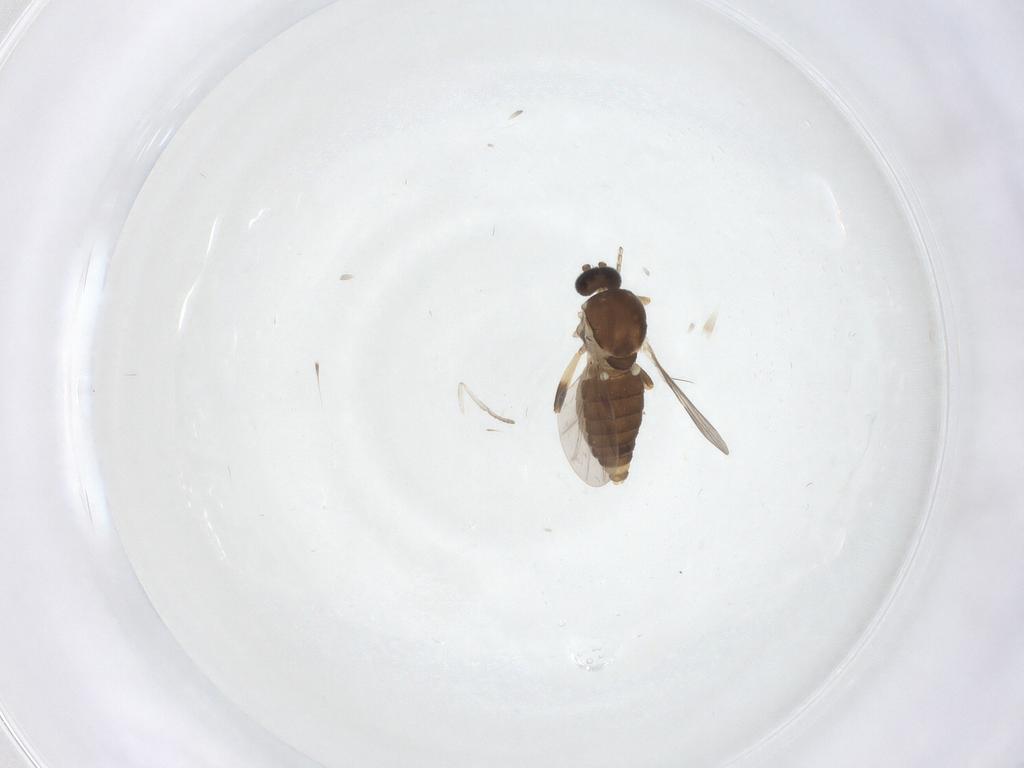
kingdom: Animalia
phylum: Arthropoda
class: Insecta
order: Diptera
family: Ceratopogonidae
